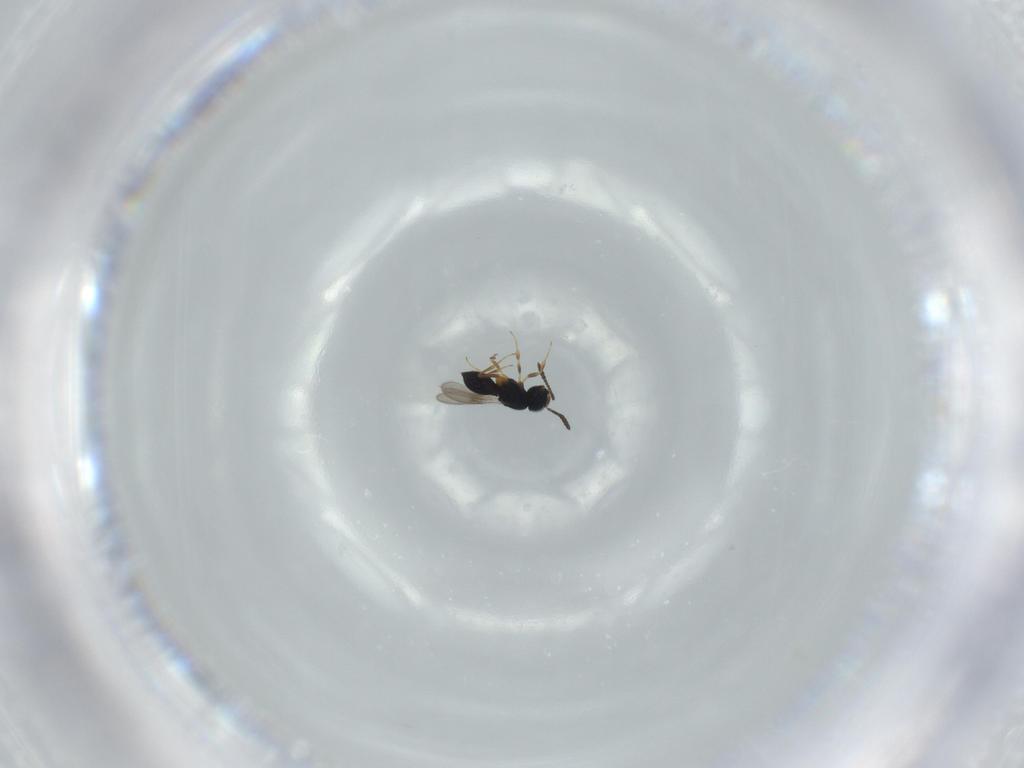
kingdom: Animalia
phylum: Arthropoda
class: Insecta
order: Hymenoptera
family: Scelionidae
